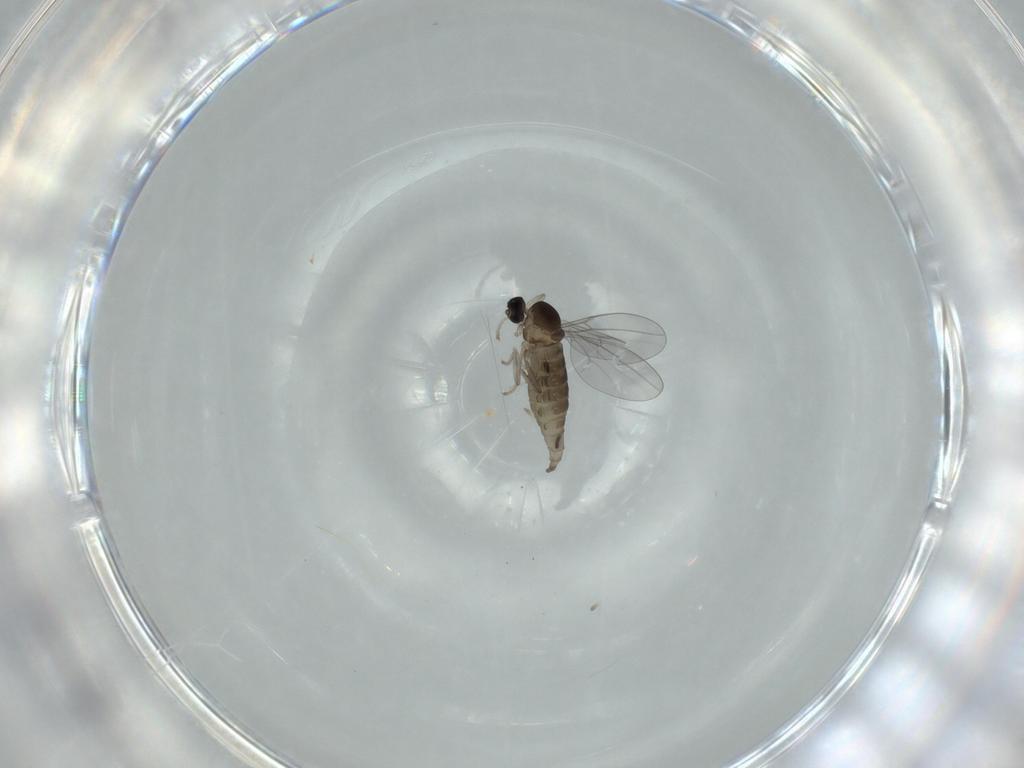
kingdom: Animalia
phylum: Arthropoda
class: Insecta
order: Diptera
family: Cecidomyiidae
